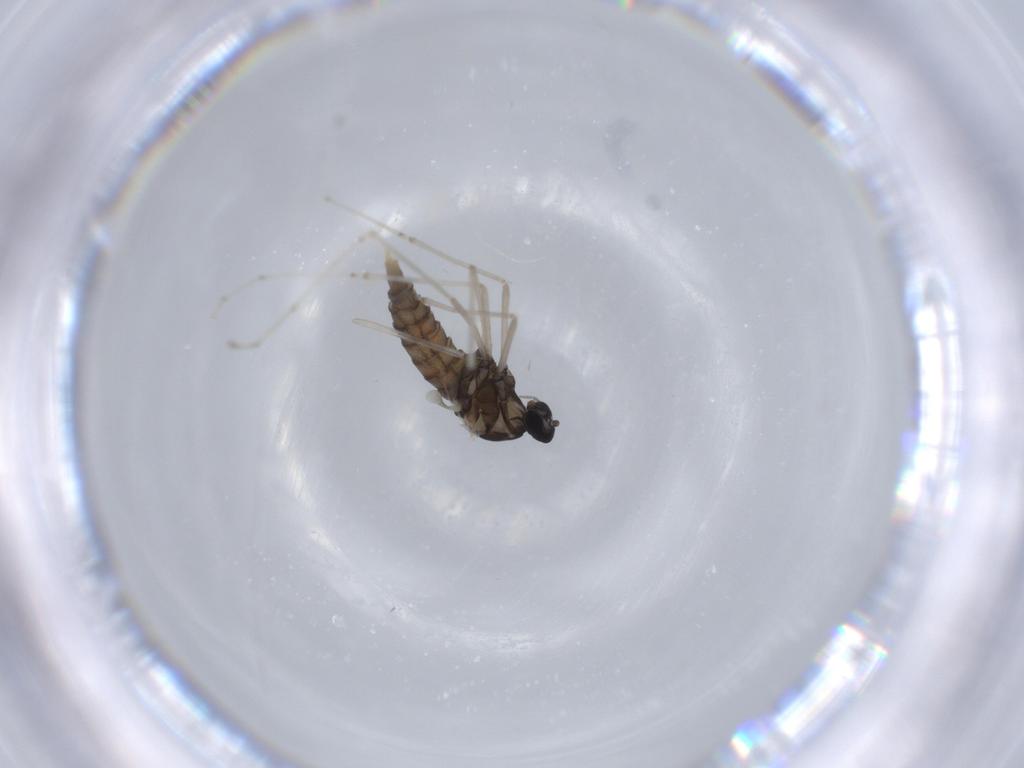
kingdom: Animalia
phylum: Arthropoda
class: Insecta
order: Diptera
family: Cecidomyiidae
